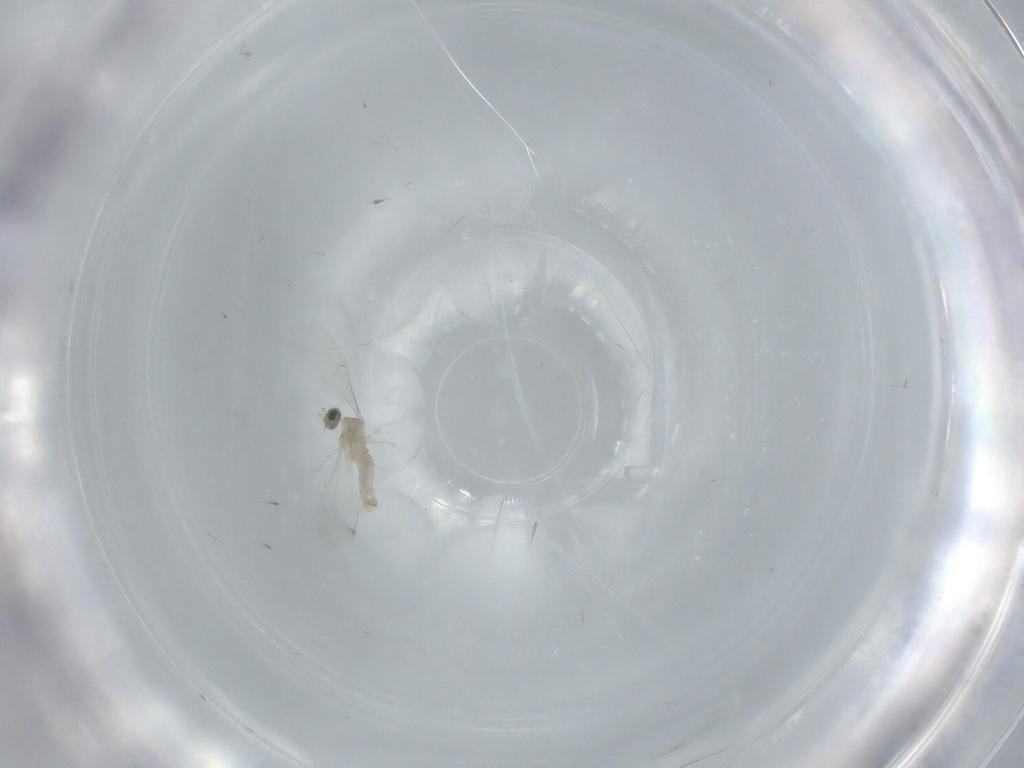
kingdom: Animalia
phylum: Arthropoda
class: Insecta
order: Diptera
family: Cecidomyiidae
